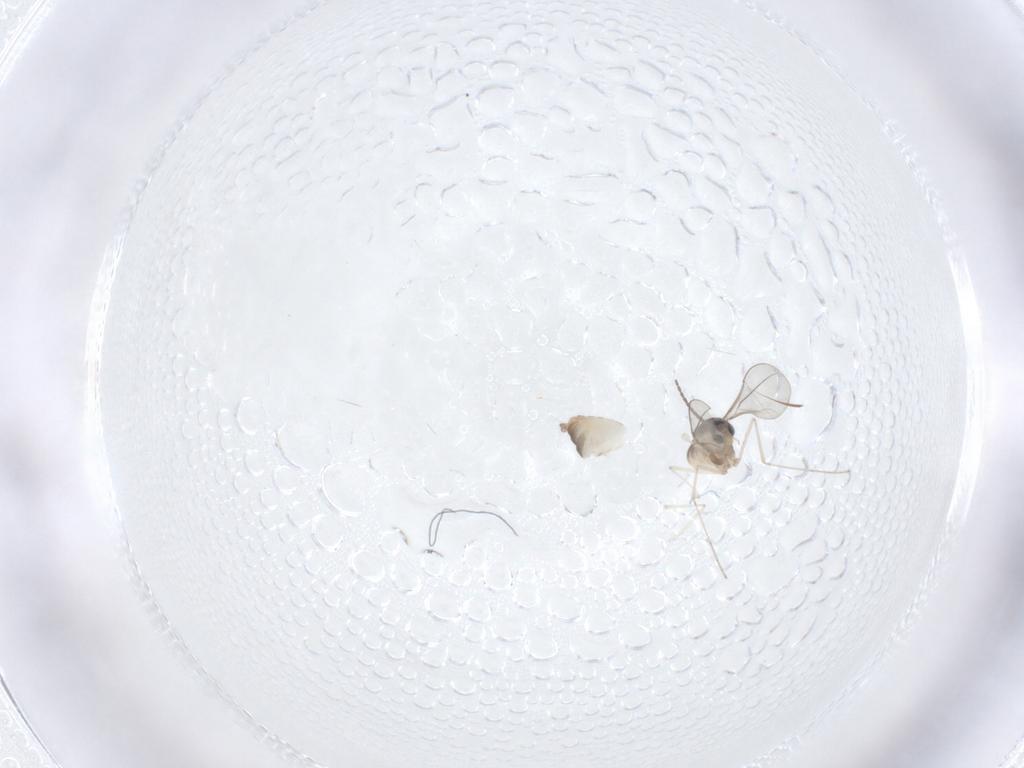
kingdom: Animalia
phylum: Arthropoda
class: Insecta
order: Diptera
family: Cecidomyiidae
